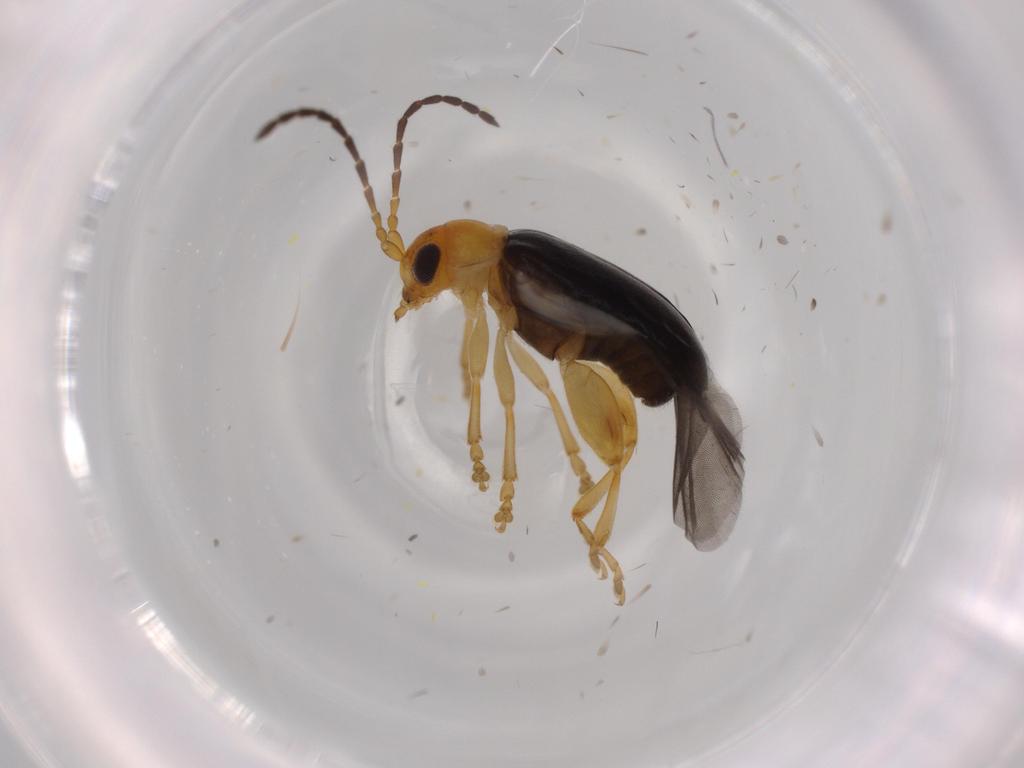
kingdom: Animalia
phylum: Arthropoda
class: Insecta
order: Coleoptera
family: Chrysomelidae
